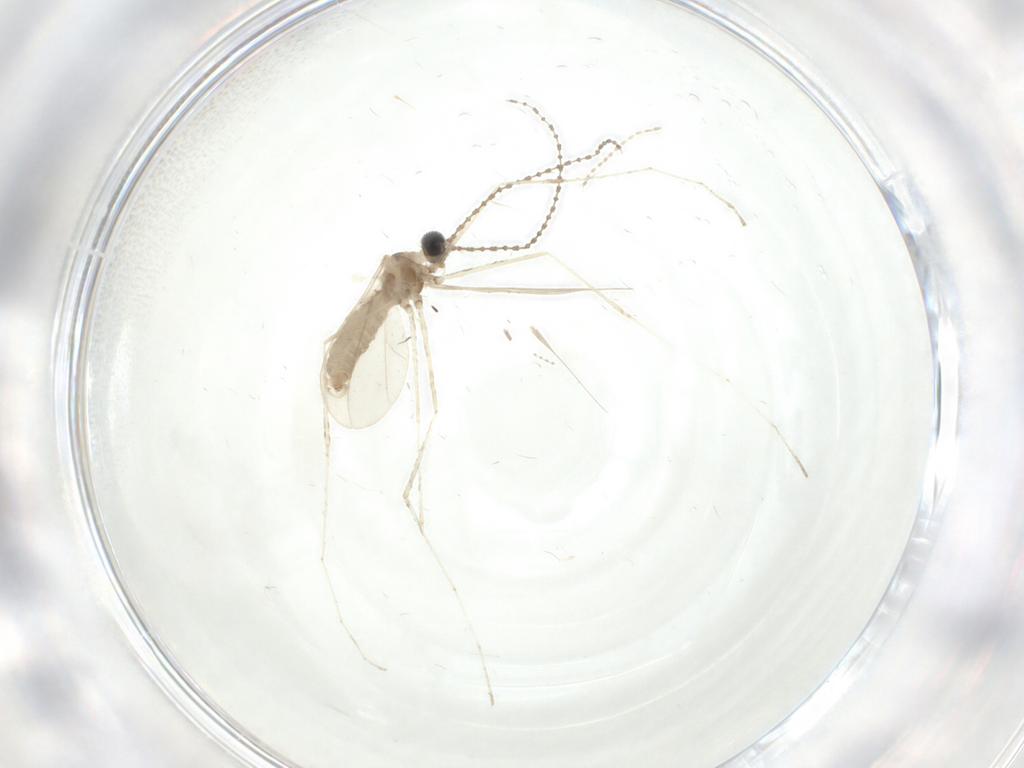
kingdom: Animalia
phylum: Arthropoda
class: Insecta
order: Diptera
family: Cecidomyiidae
